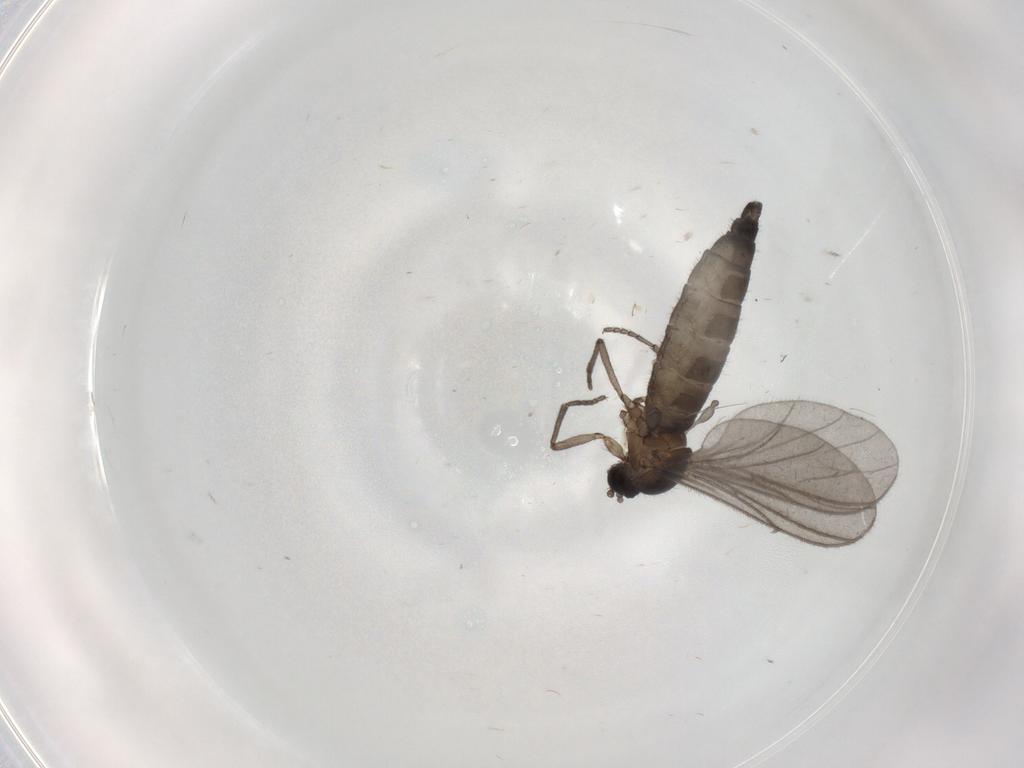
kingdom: Animalia
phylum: Arthropoda
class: Insecta
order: Diptera
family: Sciaridae
